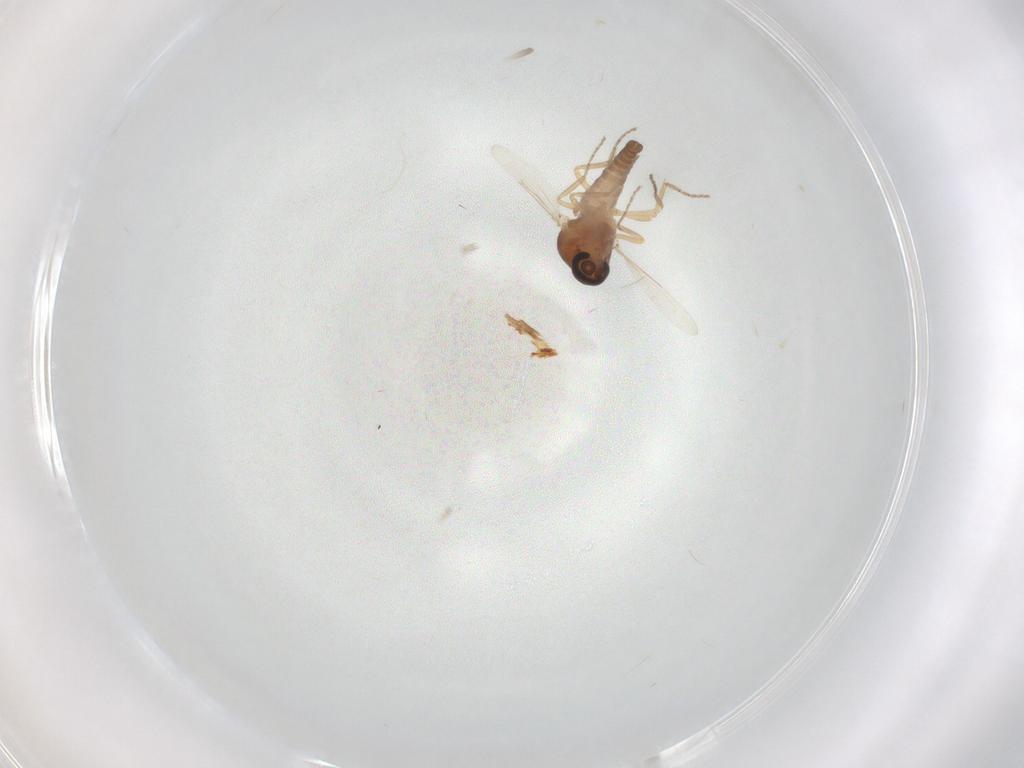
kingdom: Animalia
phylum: Arthropoda
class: Insecta
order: Diptera
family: Ceratopogonidae
